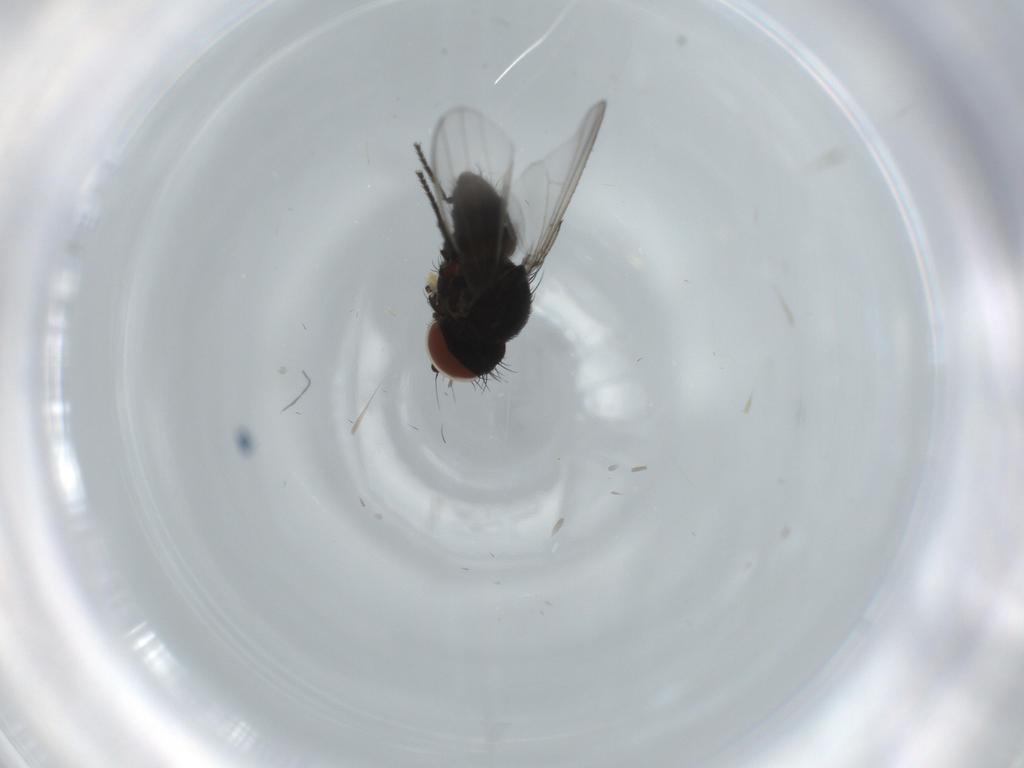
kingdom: Animalia
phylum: Arthropoda
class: Insecta
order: Diptera
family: Milichiidae
